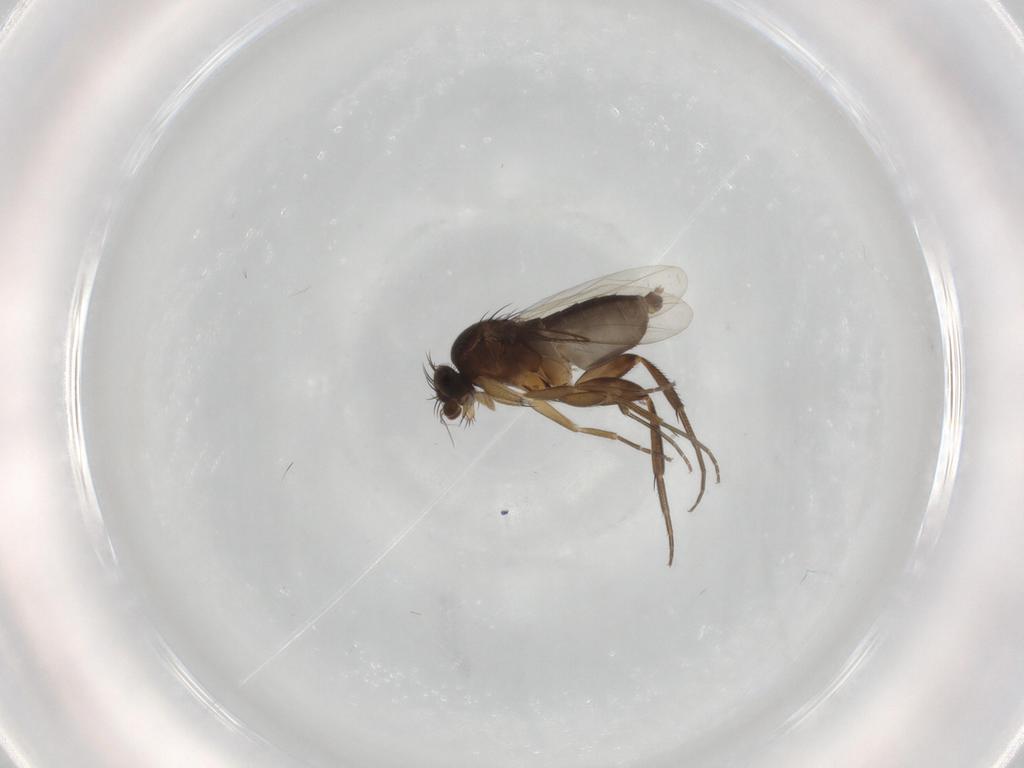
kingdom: Animalia
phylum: Arthropoda
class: Insecta
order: Diptera
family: Phoridae
